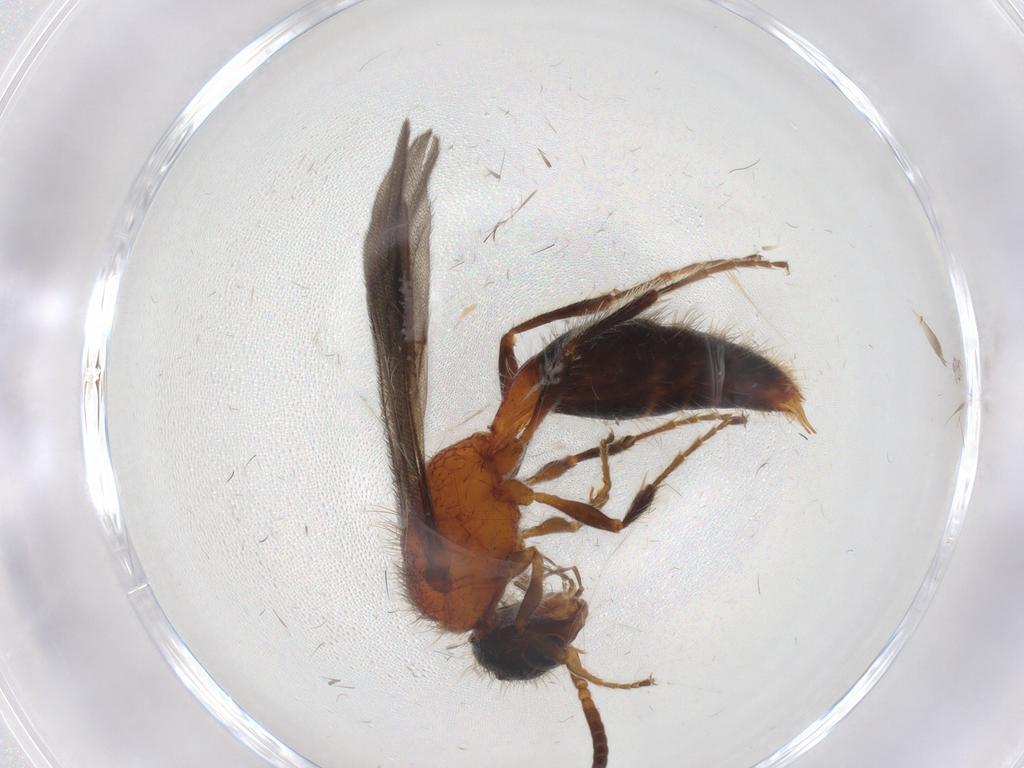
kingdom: Animalia
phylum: Arthropoda
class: Insecta
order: Hymenoptera
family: Mutillidae
